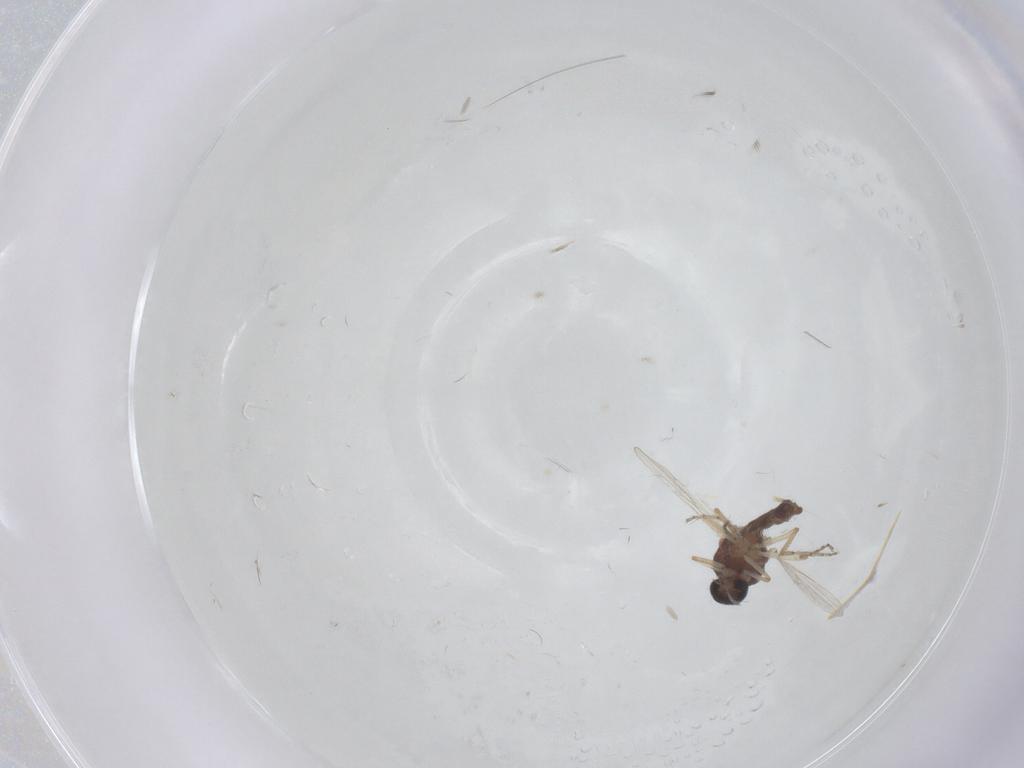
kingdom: Animalia
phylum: Arthropoda
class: Insecta
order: Diptera
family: Ceratopogonidae
